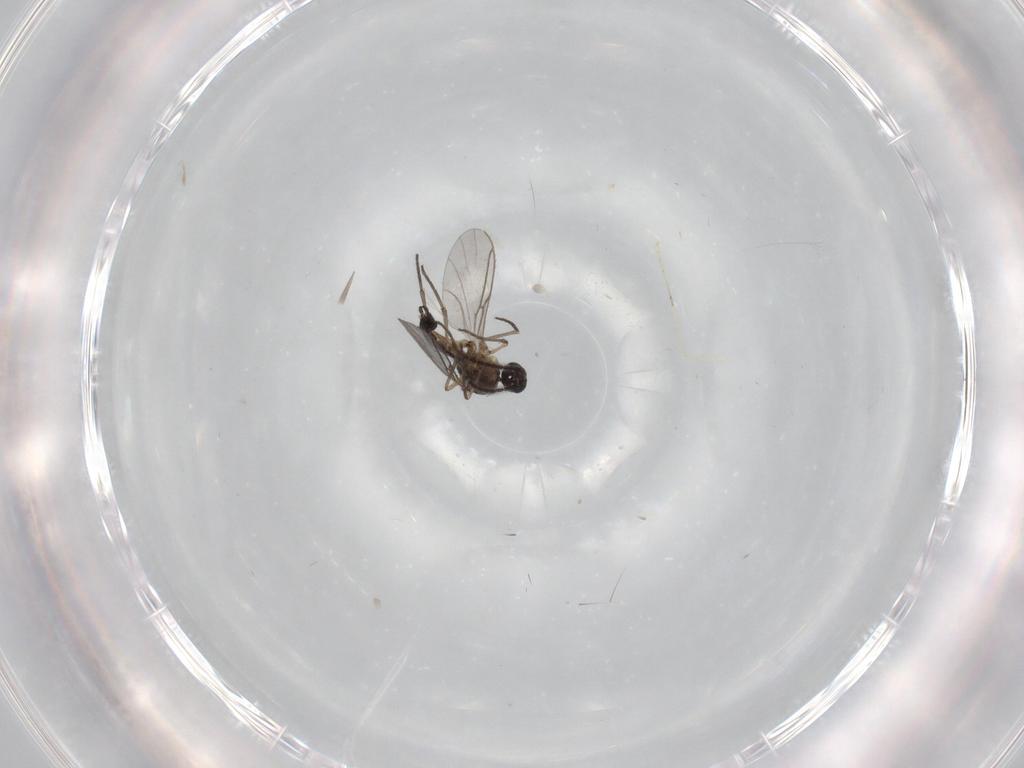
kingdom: Animalia
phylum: Arthropoda
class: Insecta
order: Diptera
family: Sciaridae
